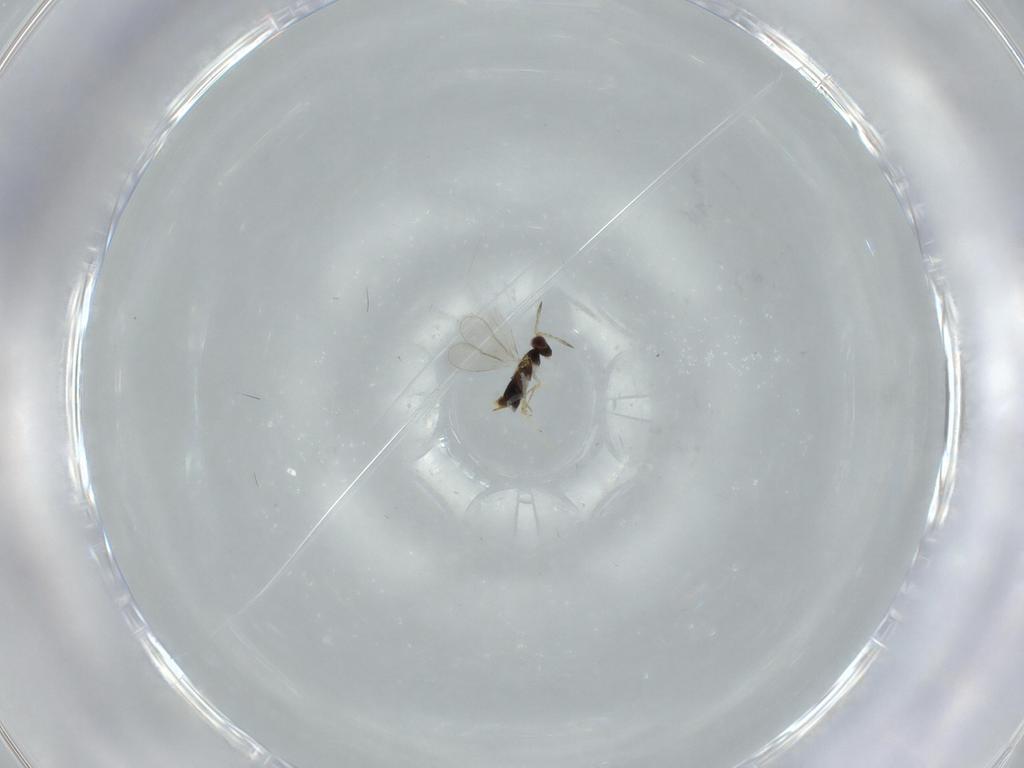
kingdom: Animalia
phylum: Arthropoda
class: Insecta
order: Hymenoptera
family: Aphelinidae
